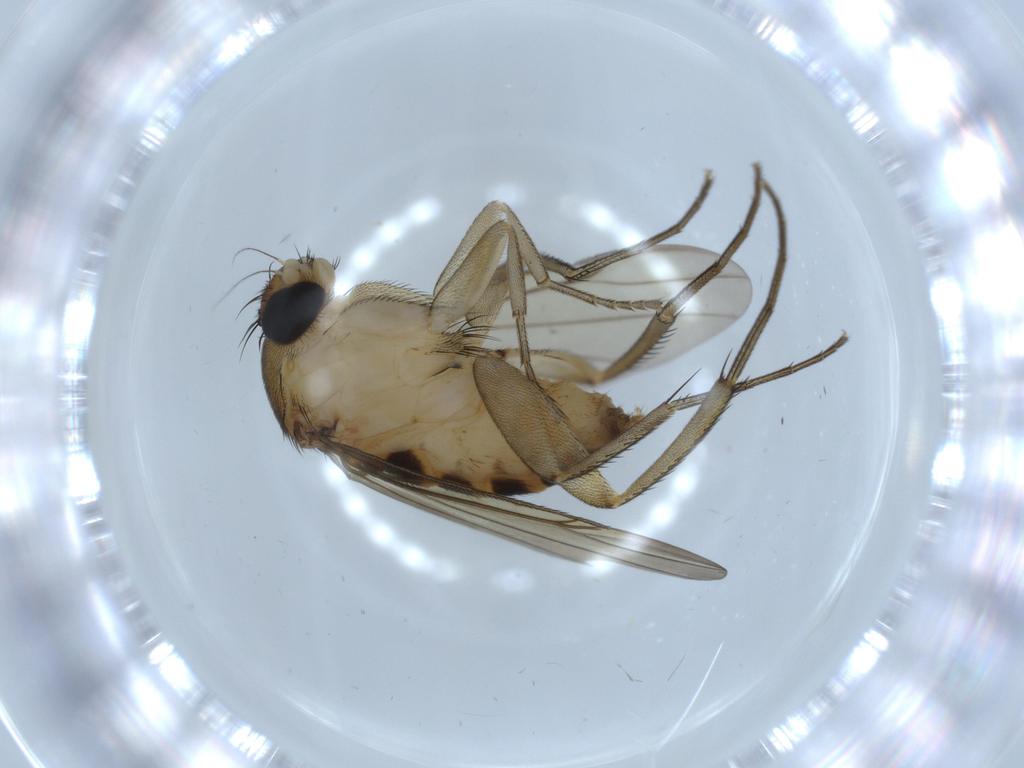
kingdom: Animalia
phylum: Arthropoda
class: Insecta
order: Diptera
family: Phoridae
